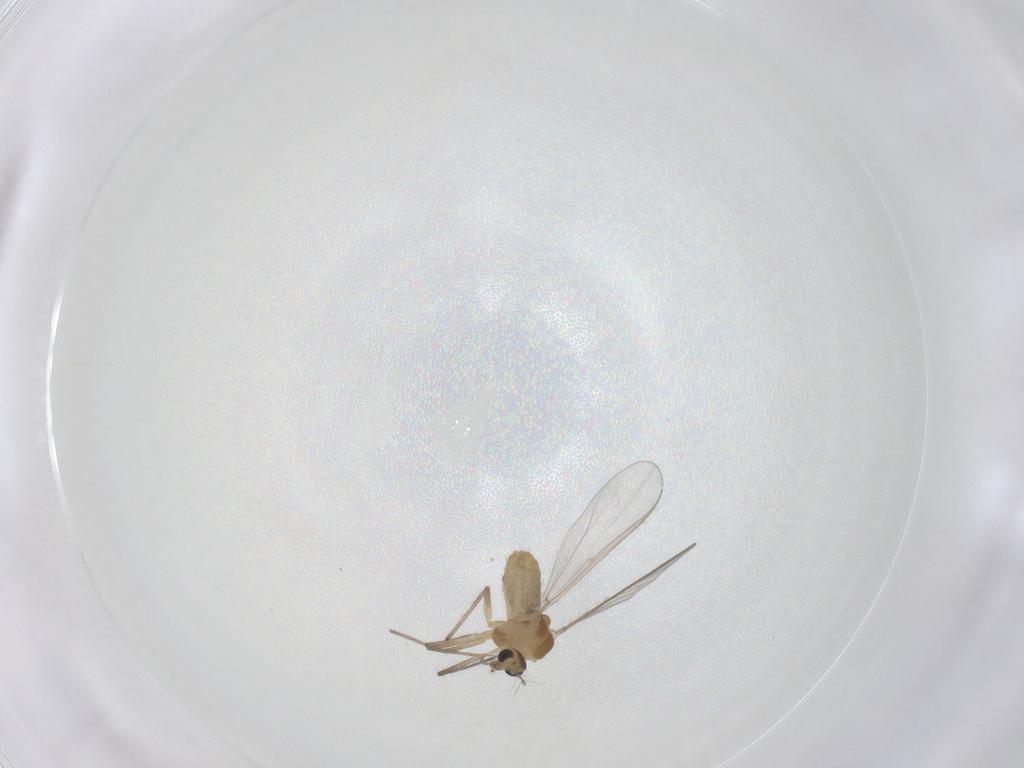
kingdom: Animalia
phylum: Arthropoda
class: Insecta
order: Diptera
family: Chironomidae
